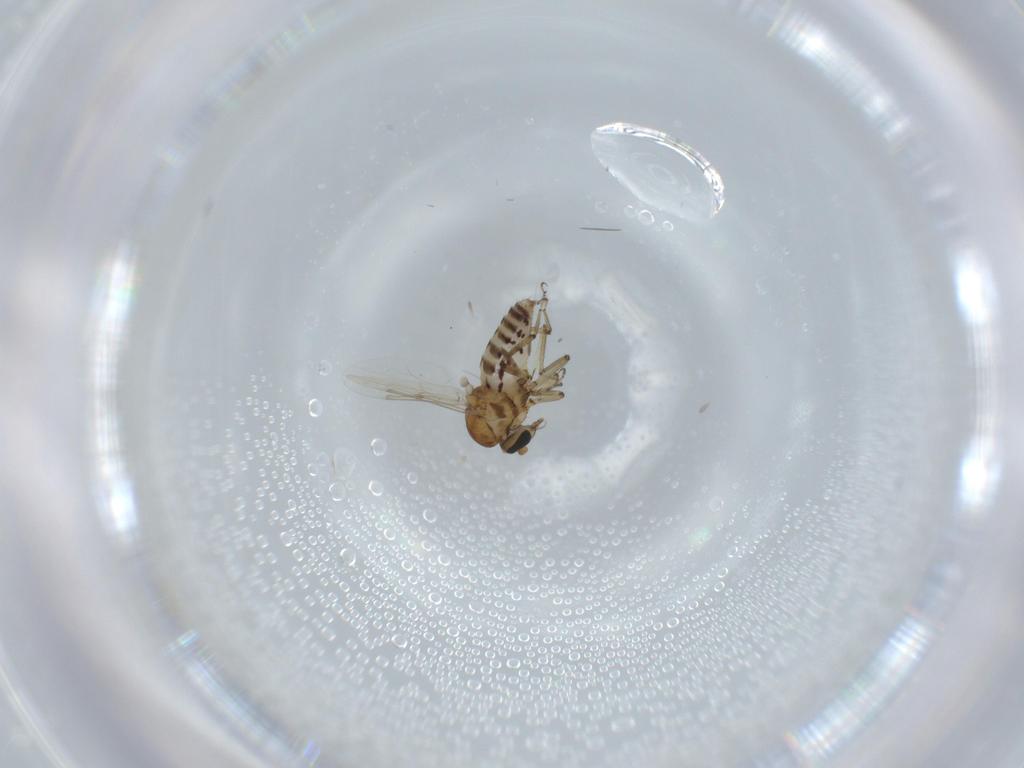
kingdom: Animalia
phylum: Arthropoda
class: Insecta
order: Diptera
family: Ceratopogonidae
